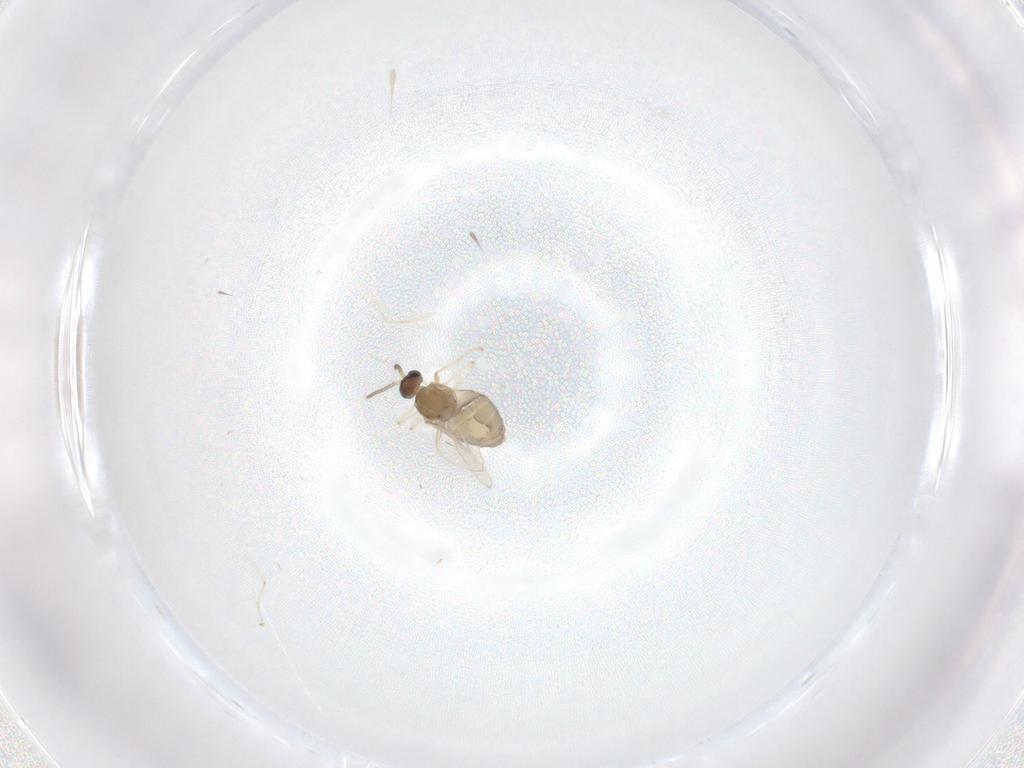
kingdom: Animalia
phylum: Arthropoda
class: Insecta
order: Diptera
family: Cecidomyiidae
